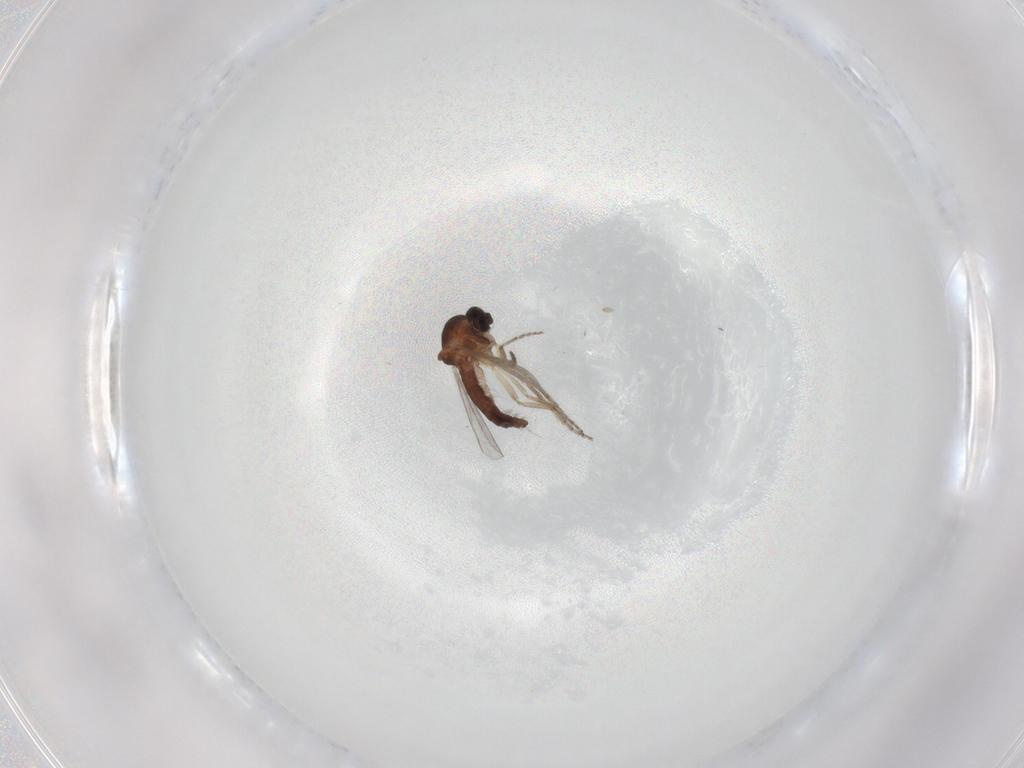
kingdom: Animalia
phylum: Arthropoda
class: Insecta
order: Diptera
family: Ceratopogonidae
